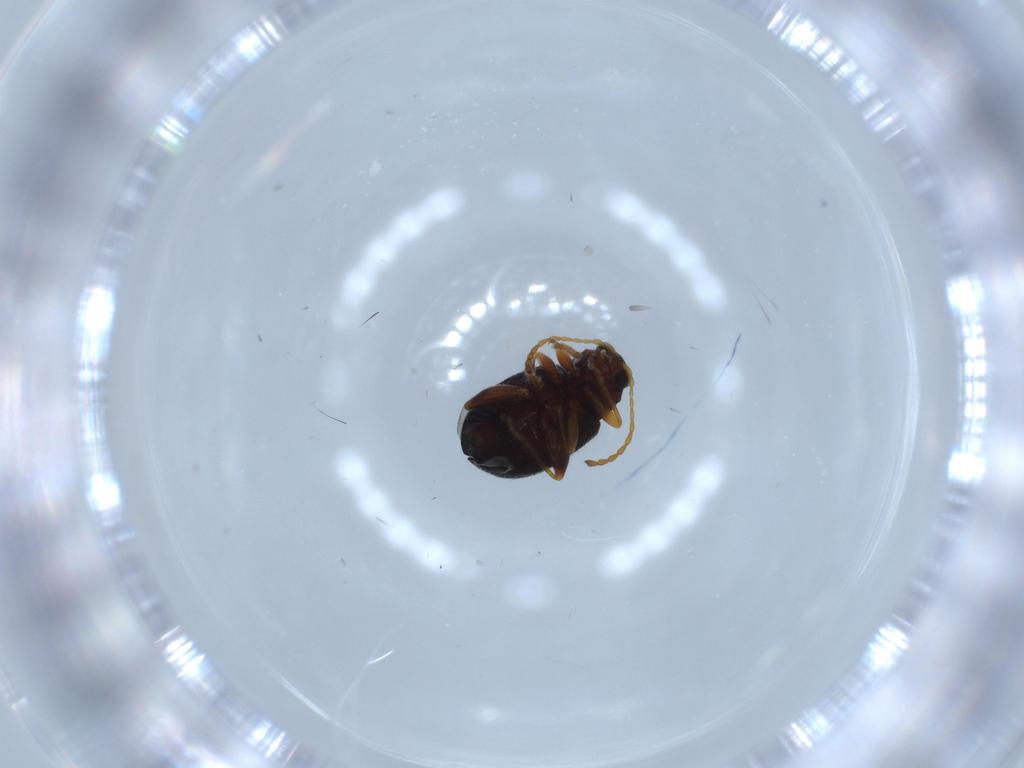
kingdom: Animalia
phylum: Arthropoda
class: Insecta
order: Coleoptera
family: Chrysomelidae
